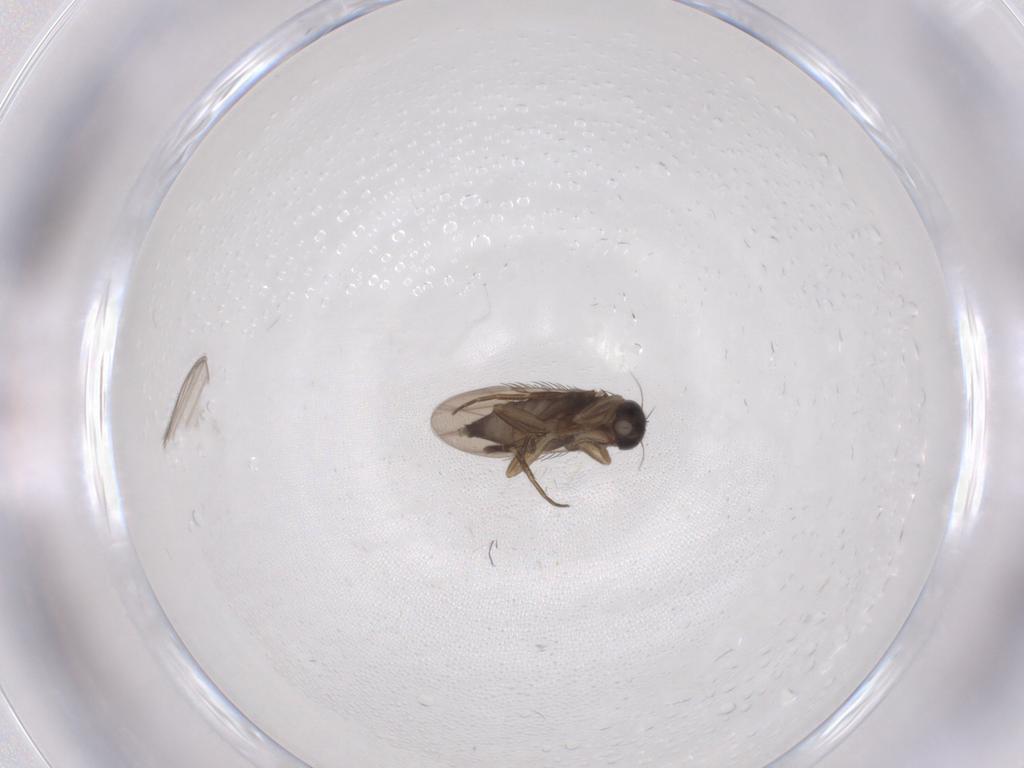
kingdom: Animalia
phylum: Arthropoda
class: Insecta
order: Diptera
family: Phoridae
